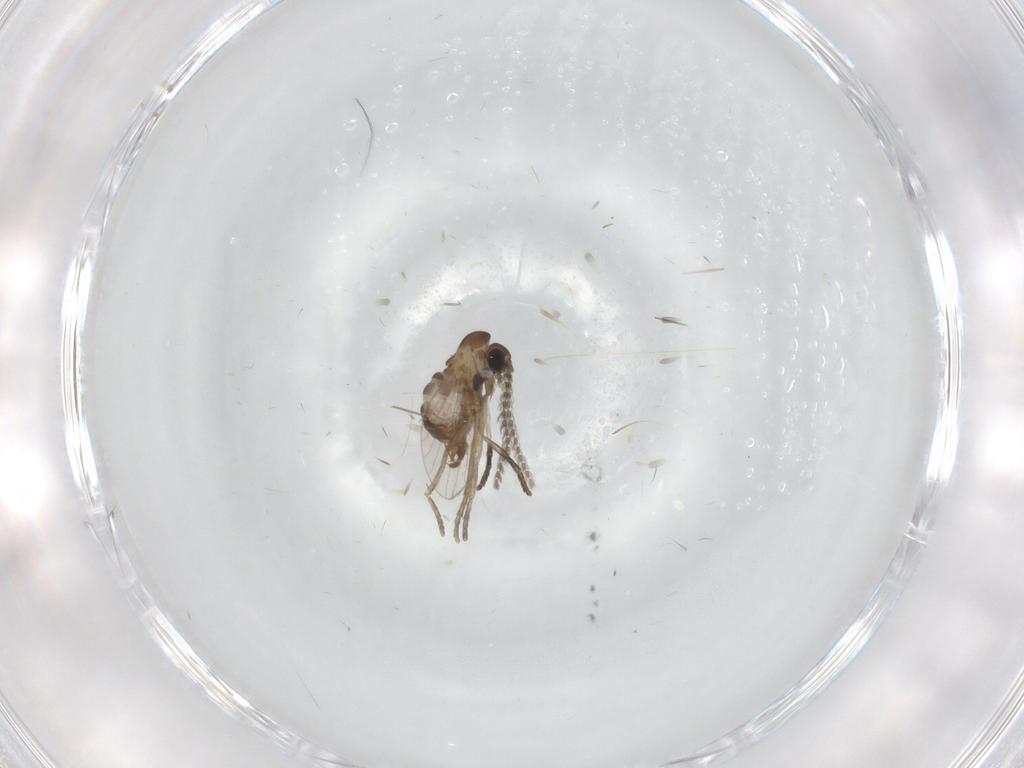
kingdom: Animalia
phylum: Arthropoda
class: Insecta
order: Diptera
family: Psychodidae
